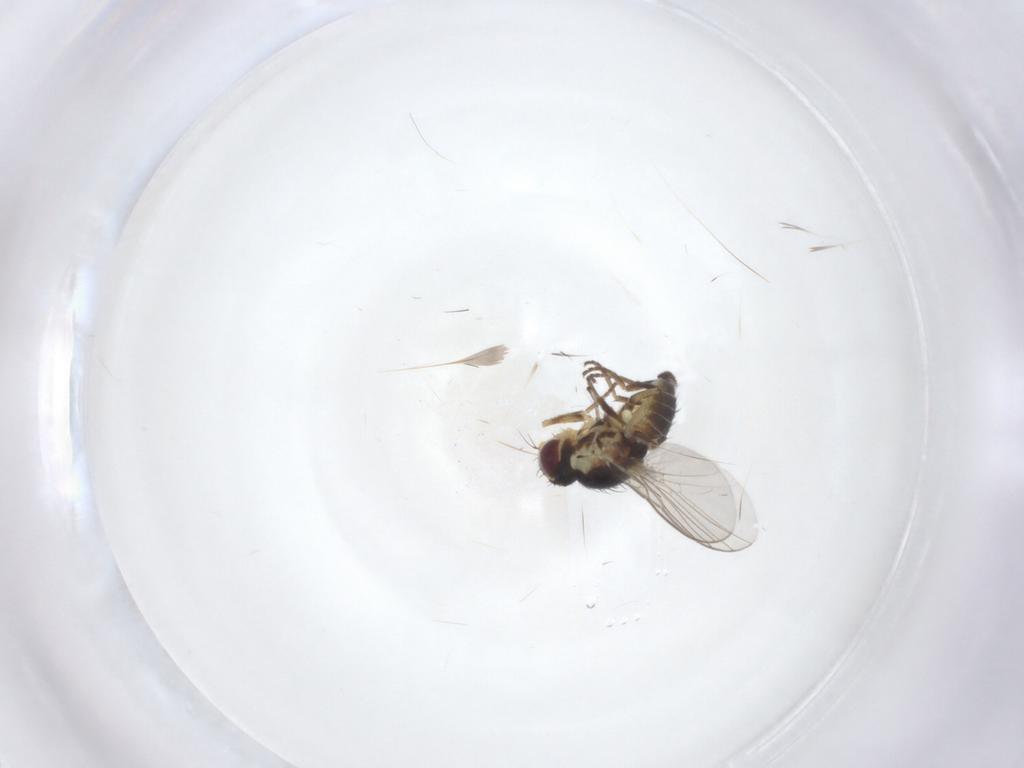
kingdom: Animalia
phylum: Arthropoda
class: Insecta
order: Diptera
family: Agromyzidae
